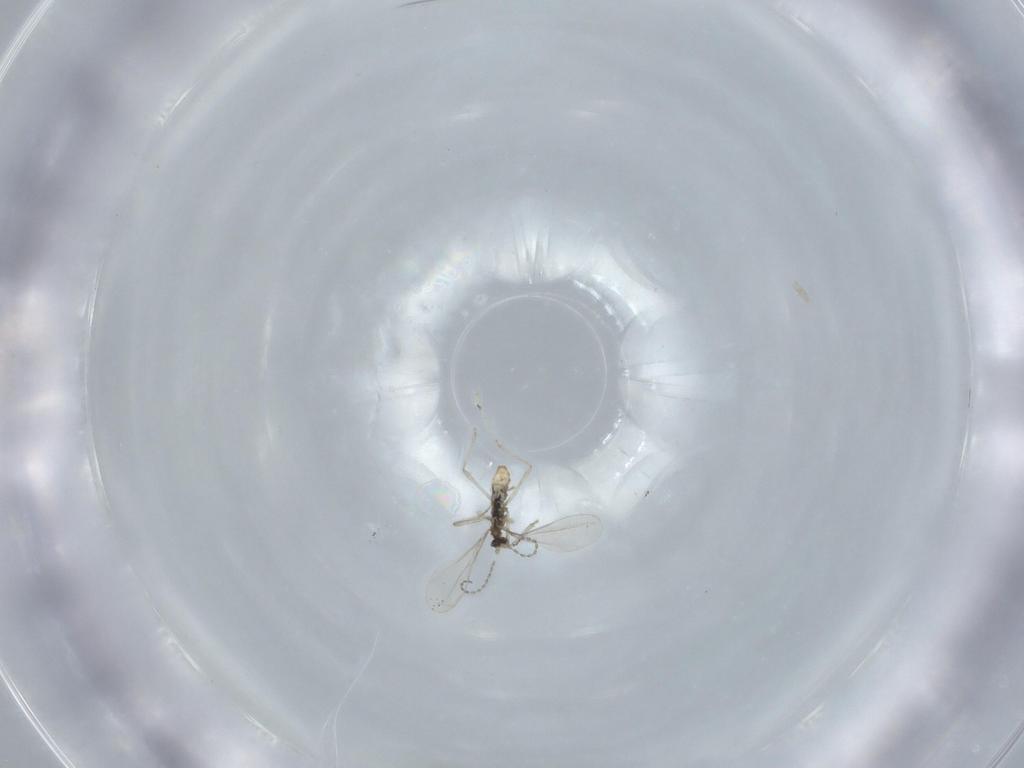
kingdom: Animalia
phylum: Arthropoda
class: Insecta
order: Diptera
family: Cecidomyiidae
